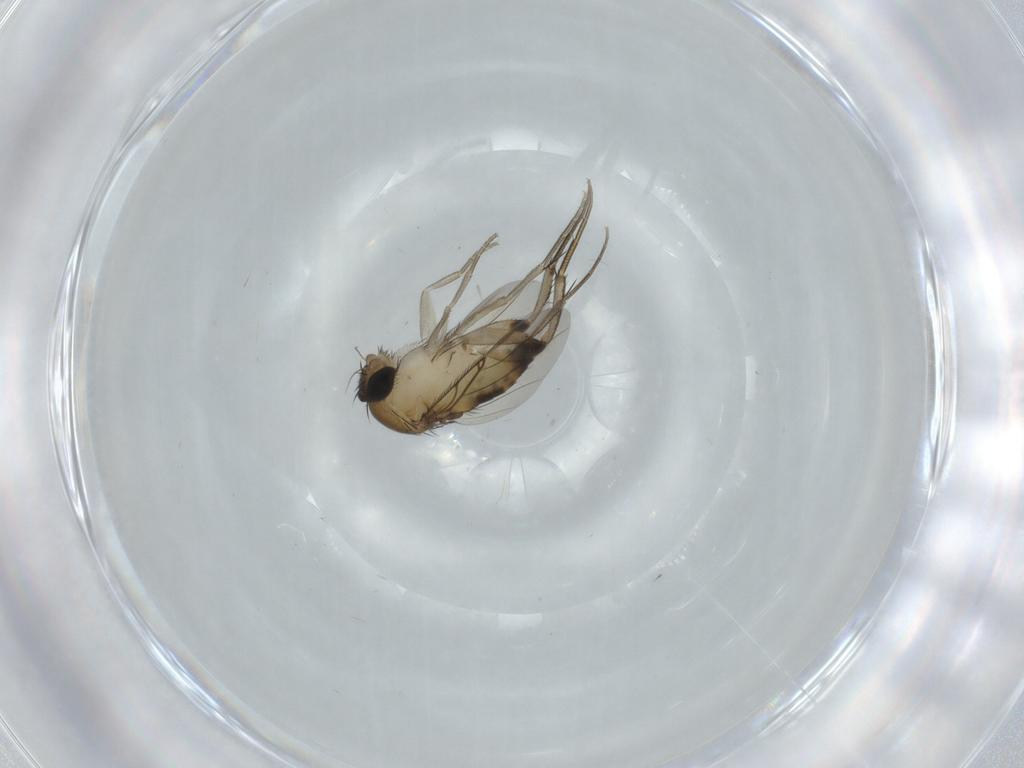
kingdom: Animalia
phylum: Arthropoda
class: Insecta
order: Diptera
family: Phoridae
